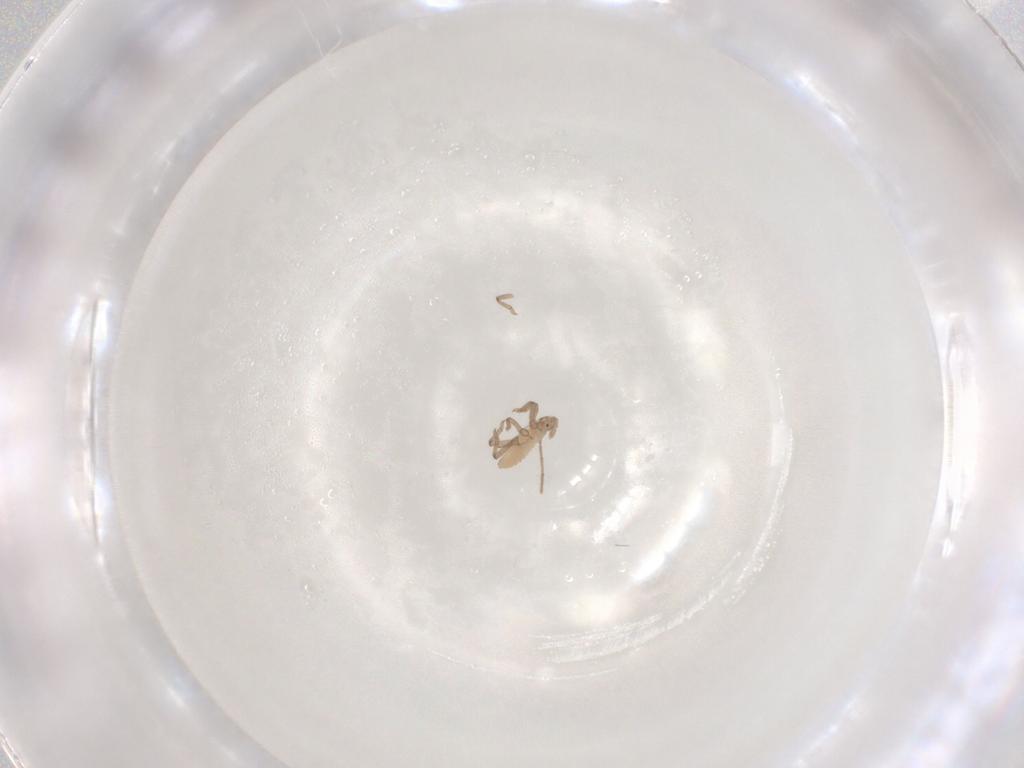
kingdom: Animalia
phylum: Arthropoda
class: Insecta
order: Hemiptera
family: Aphididae
